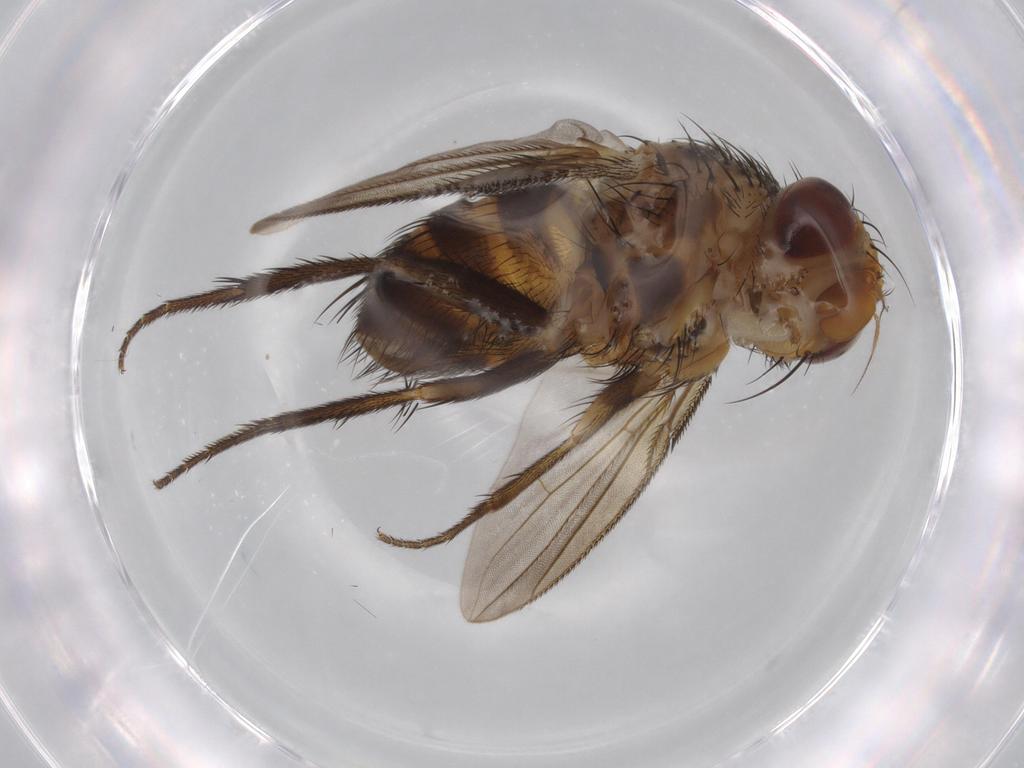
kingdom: Animalia
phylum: Arthropoda
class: Insecta
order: Diptera
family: Cecidomyiidae
